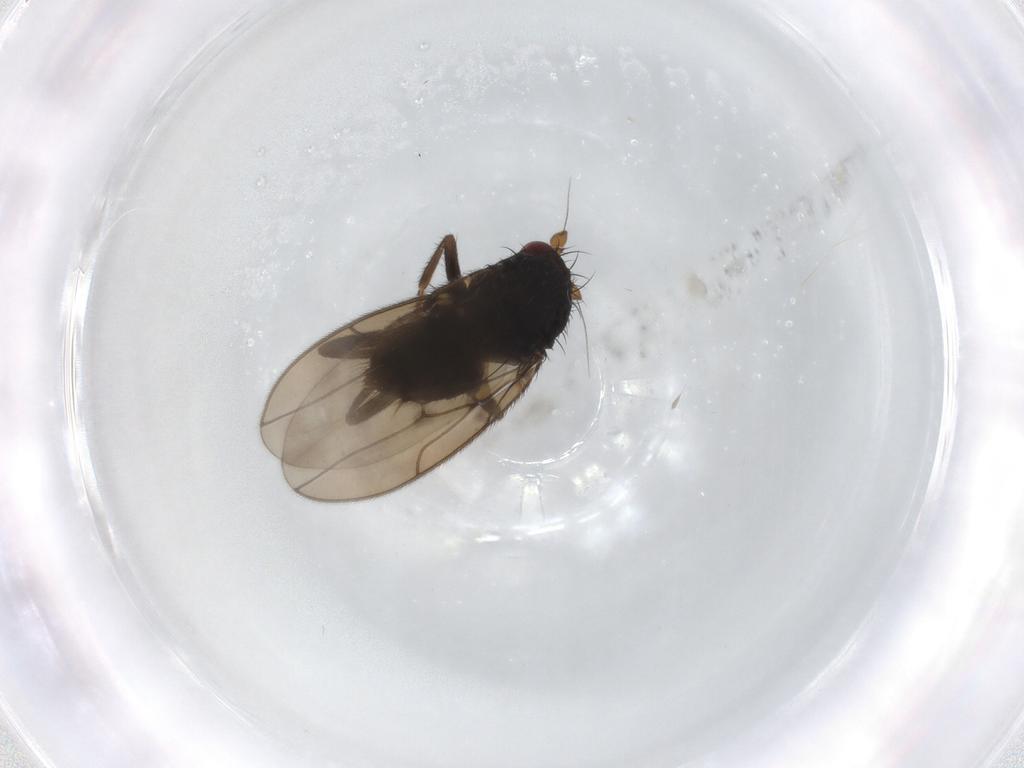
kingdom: Animalia
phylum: Arthropoda
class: Insecta
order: Diptera
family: Sphaeroceridae
